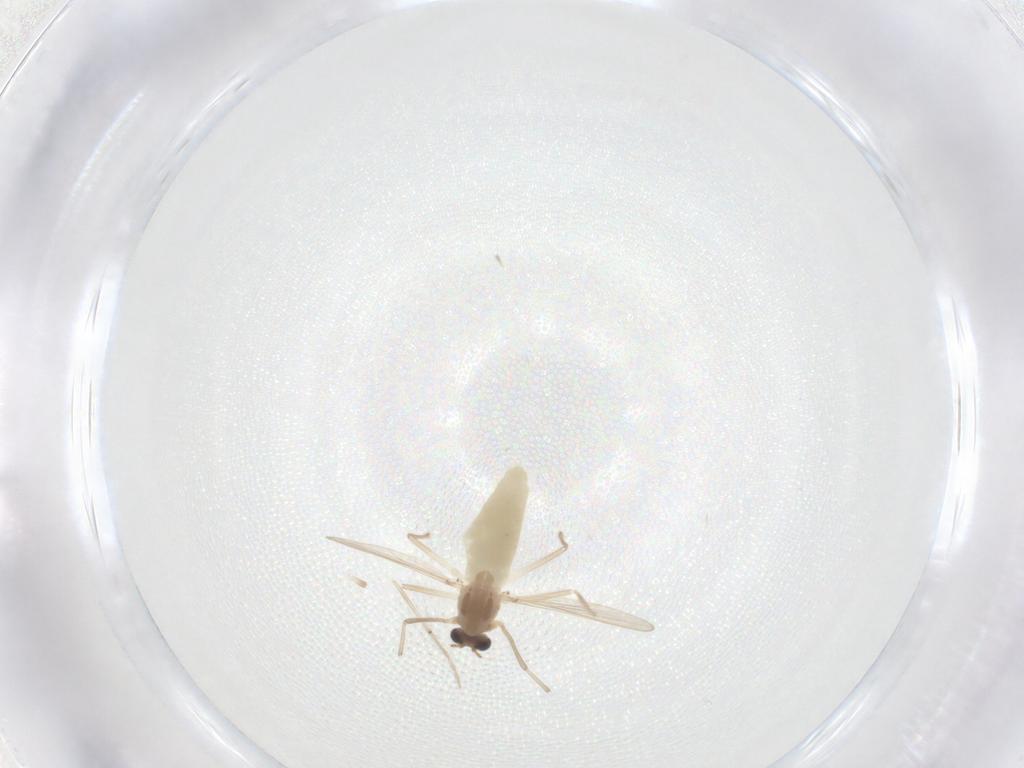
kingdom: Animalia
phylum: Arthropoda
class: Insecta
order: Diptera
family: Chironomidae
